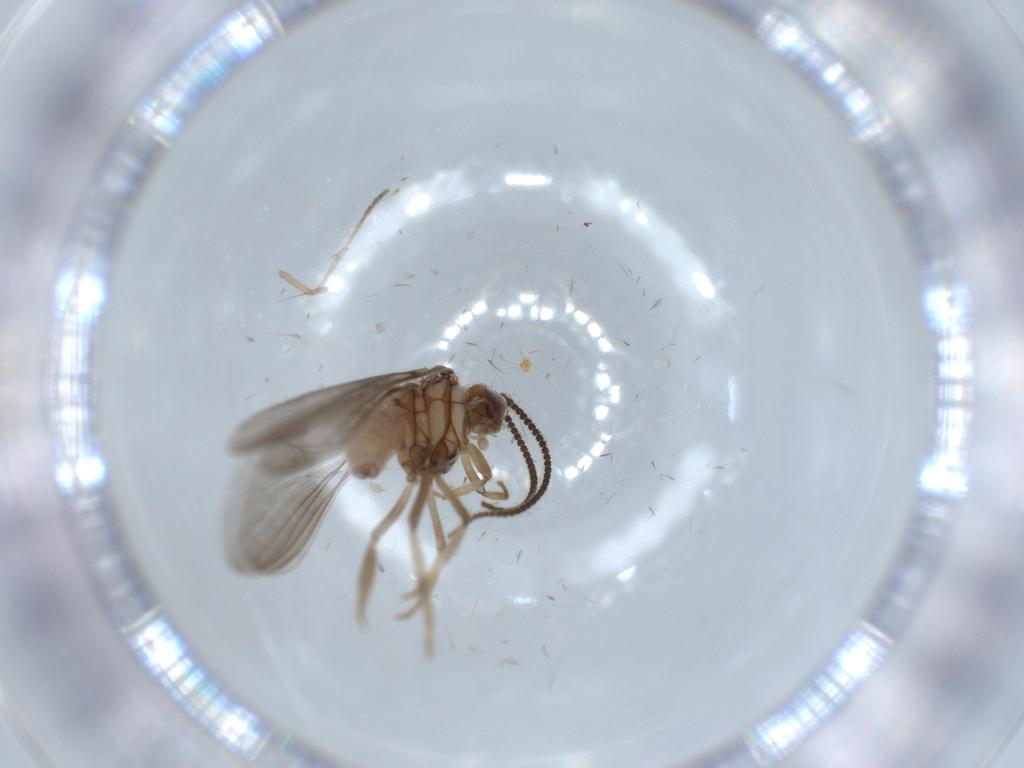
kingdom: Animalia
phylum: Arthropoda
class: Insecta
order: Neuroptera
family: Coniopterygidae
